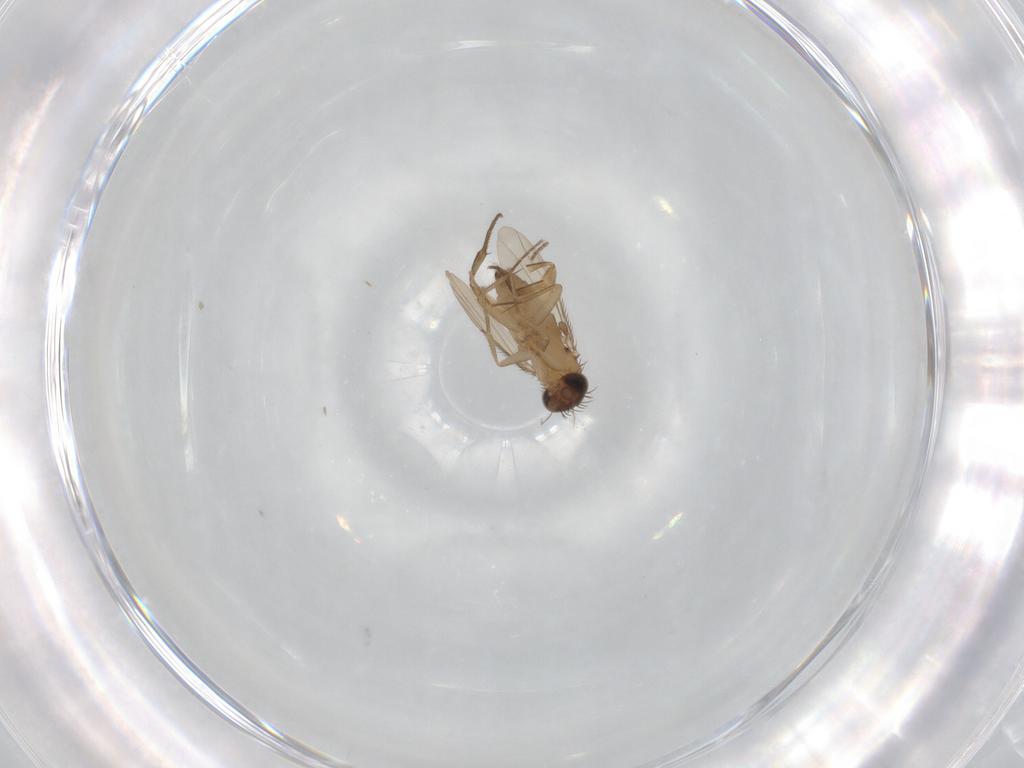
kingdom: Animalia
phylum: Arthropoda
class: Insecta
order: Diptera
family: Phoridae
